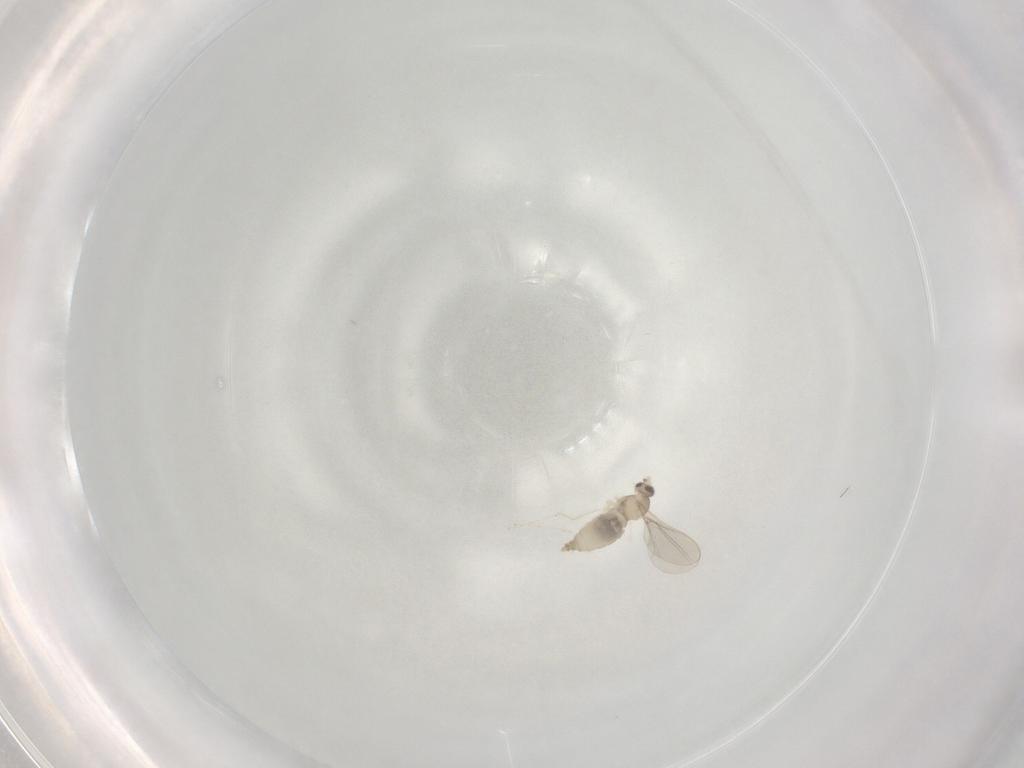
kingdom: Animalia
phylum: Arthropoda
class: Insecta
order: Diptera
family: Cecidomyiidae
